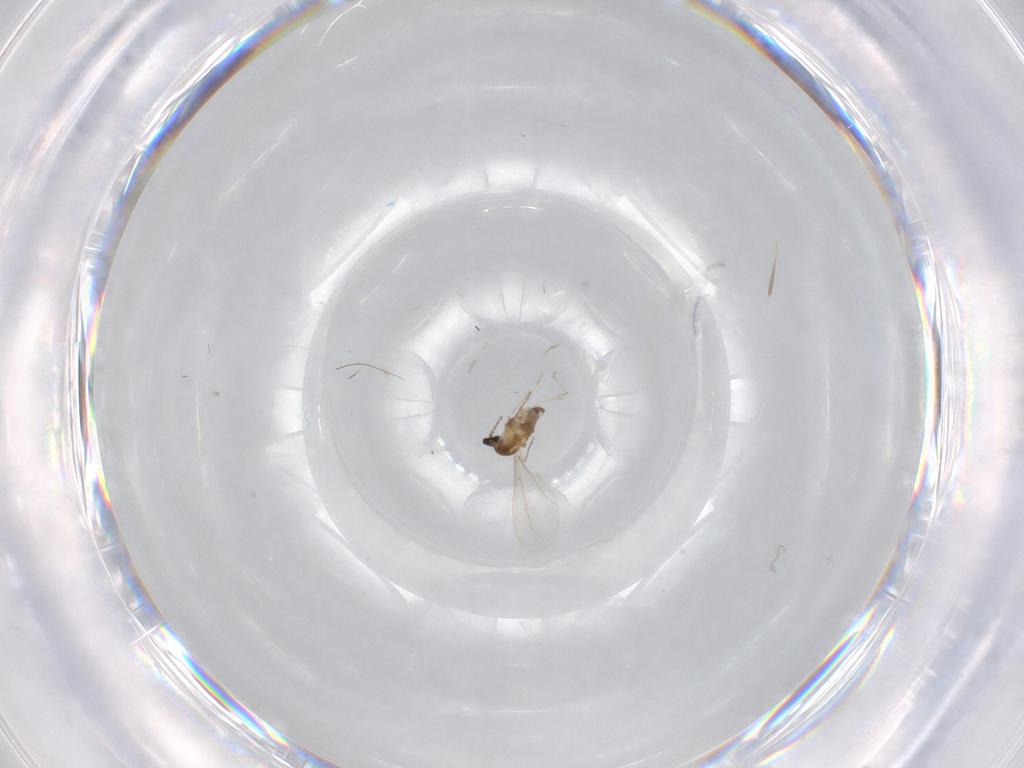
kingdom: Animalia
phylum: Arthropoda
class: Insecta
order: Diptera
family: Cecidomyiidae
